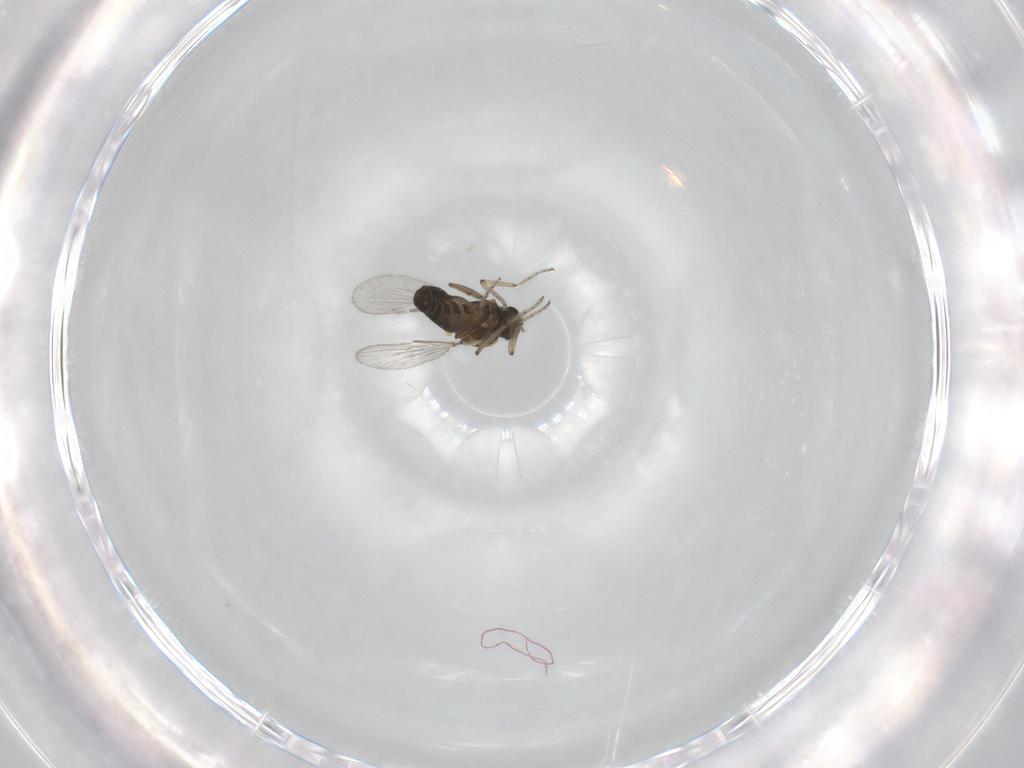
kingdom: Animalia
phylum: Arthropoda
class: Insecta
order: Diptera
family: Ceratopogonidae
